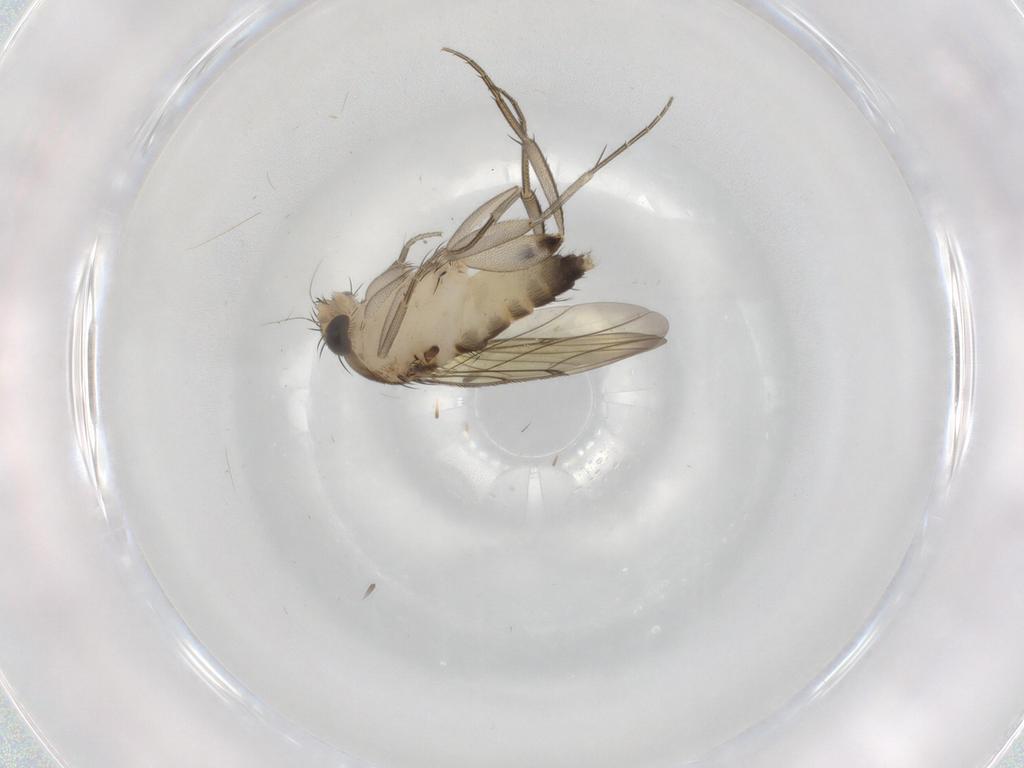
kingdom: Animalia
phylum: Arthropoda
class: Insecta
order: Diptera
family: Phoridae
